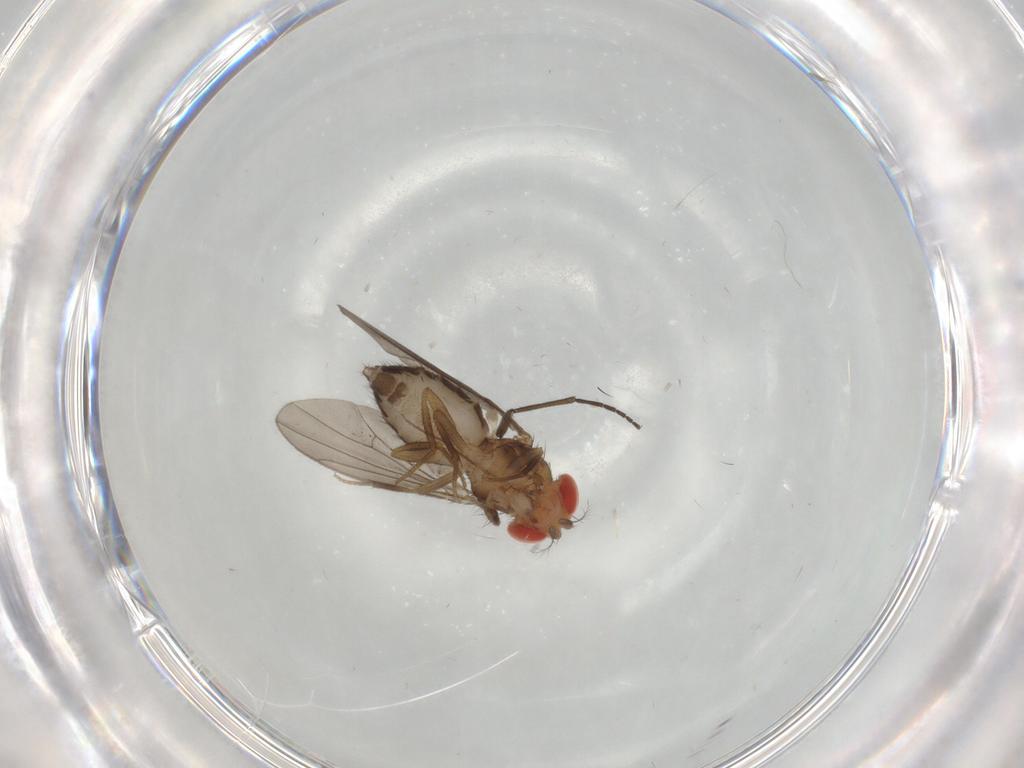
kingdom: Animalia
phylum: Arthropoda
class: Insecta
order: Diptera
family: Drosophilidae
